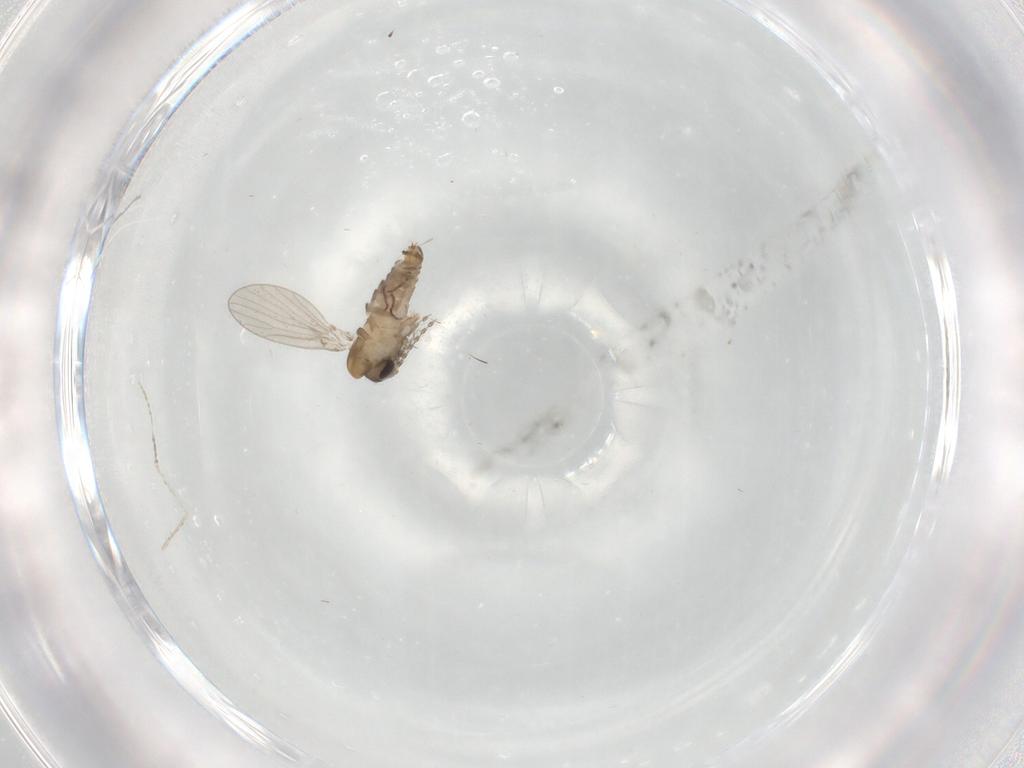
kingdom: Animalia
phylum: Arthropoda
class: Insecta
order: Diptera
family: Psychodidae
